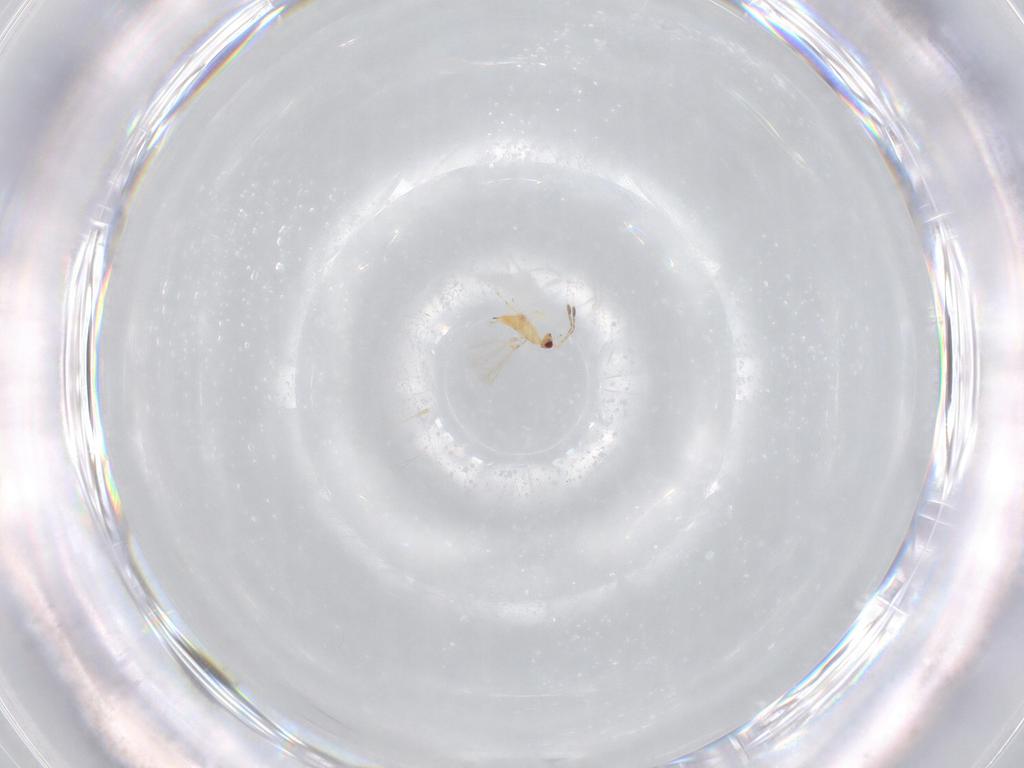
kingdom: Animalia
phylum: Arthropoda
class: Insecta
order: Hymenoptera
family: Mymaridae
